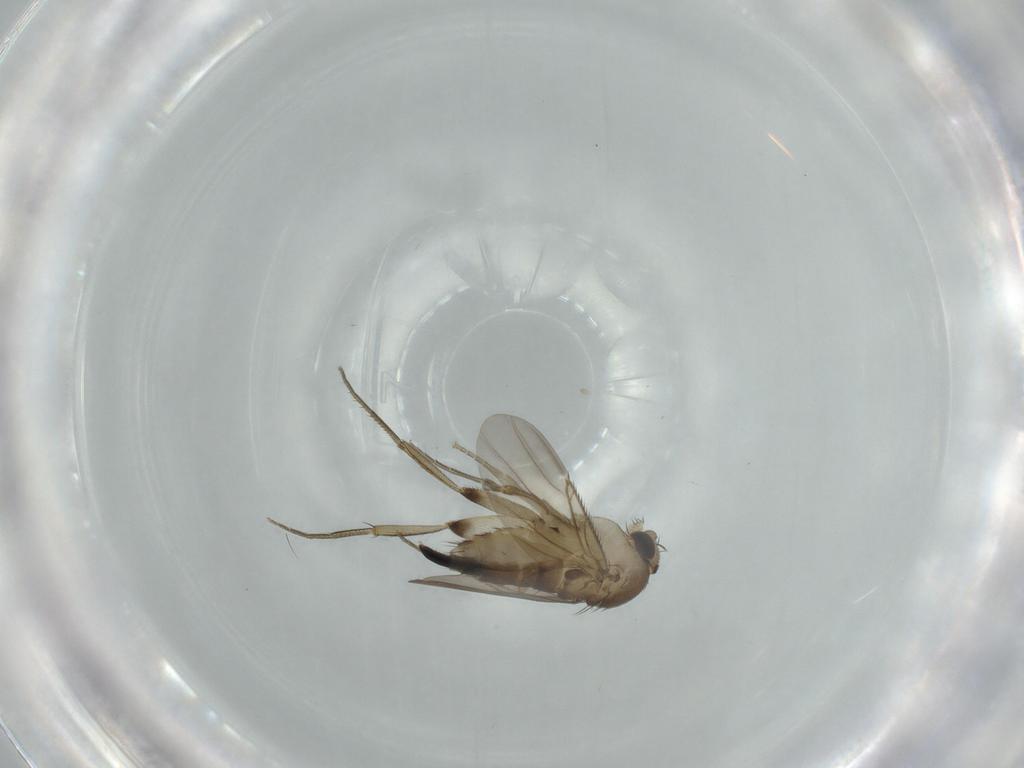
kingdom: Animalia
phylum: Arthropoda
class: Insecta
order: Diptera
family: Phoridae
